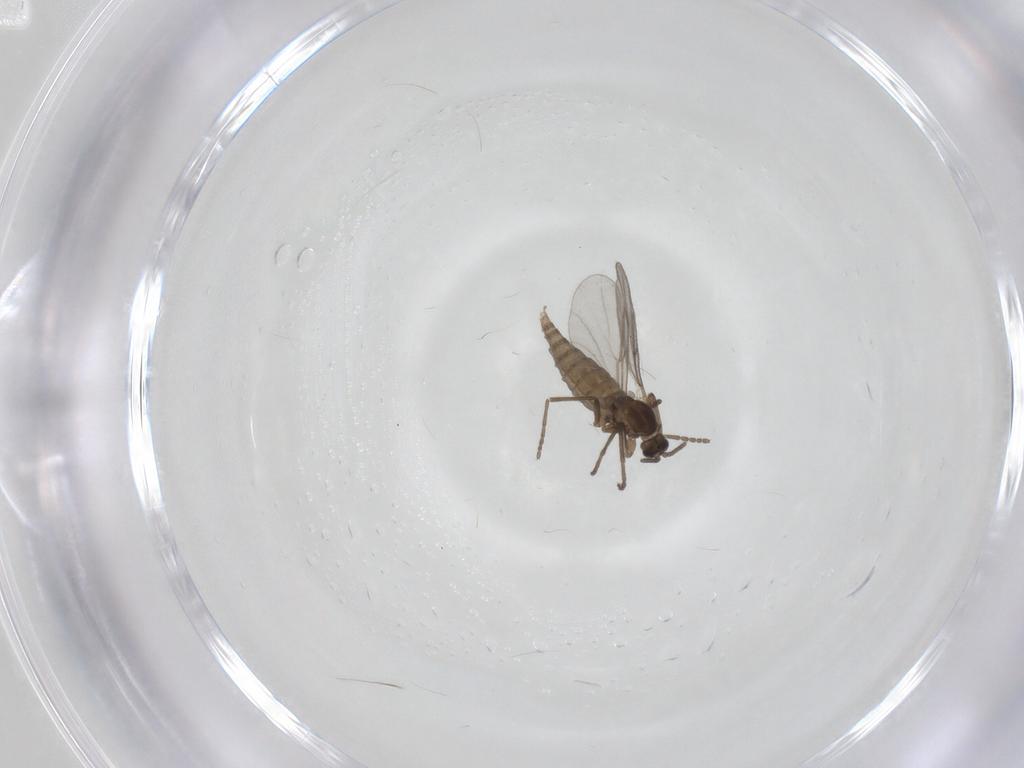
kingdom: Animalia
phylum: Arthropoda
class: Insecta
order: Diptera
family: Cecidomyiidae
